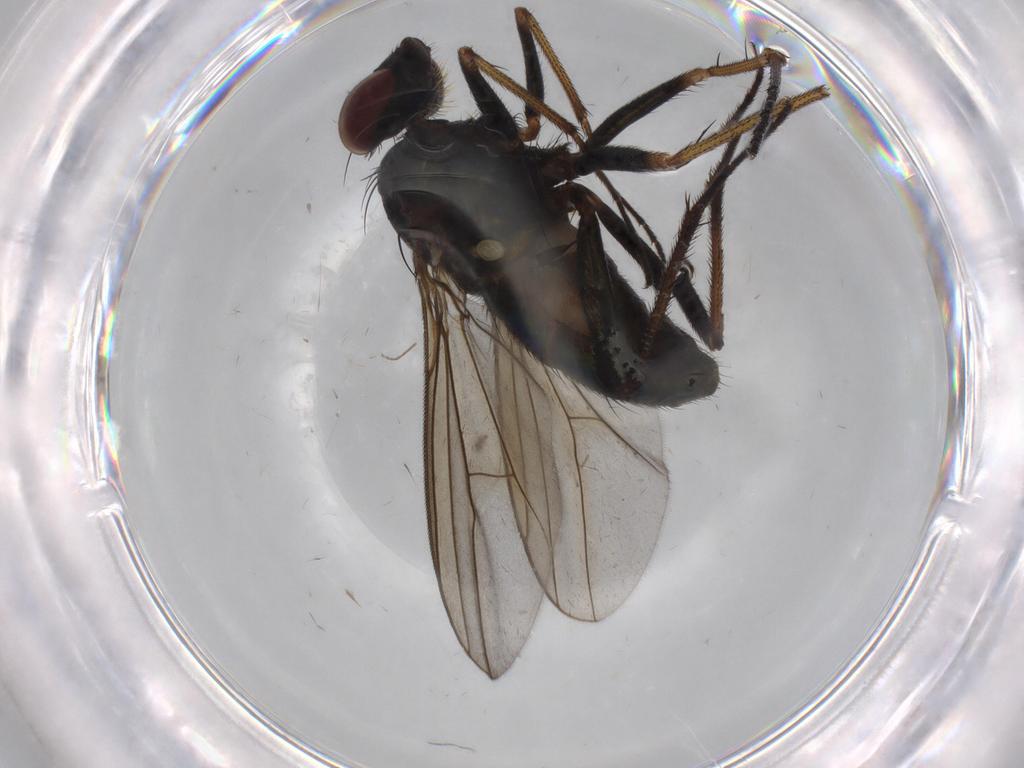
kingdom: Animalia
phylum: Arthropoda
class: Insecta
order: Diptera
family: Dolichopodidae
